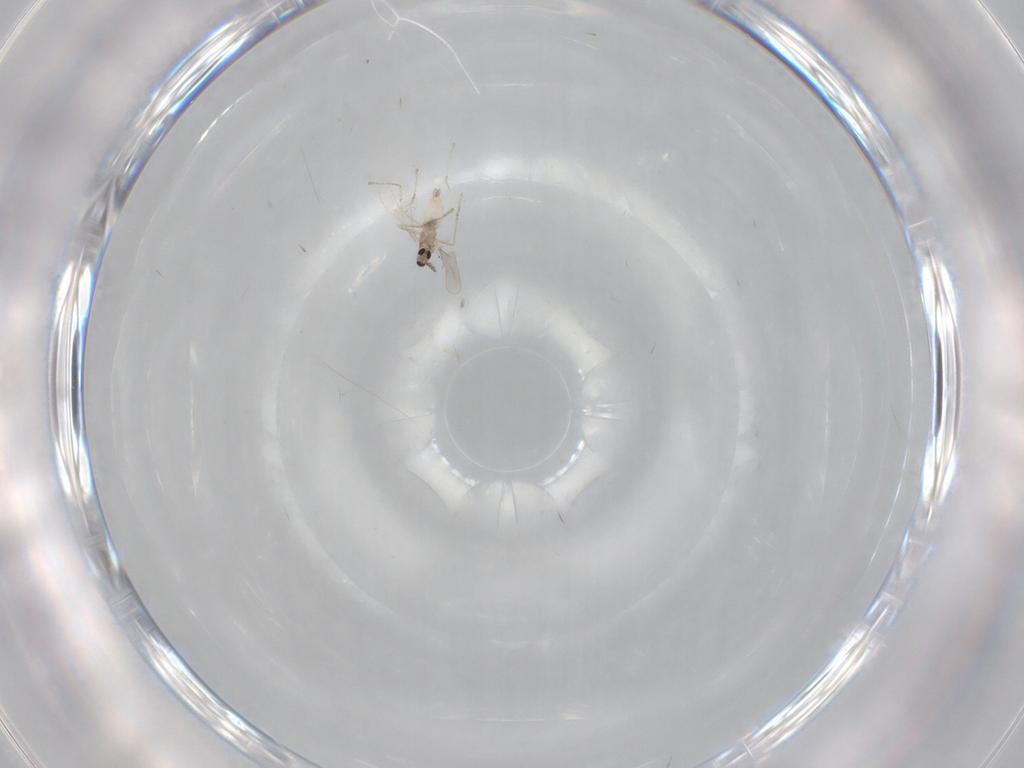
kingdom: Animalia
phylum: Arthropoda
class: Insecta
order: Diptera
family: Cecidomyiidae
